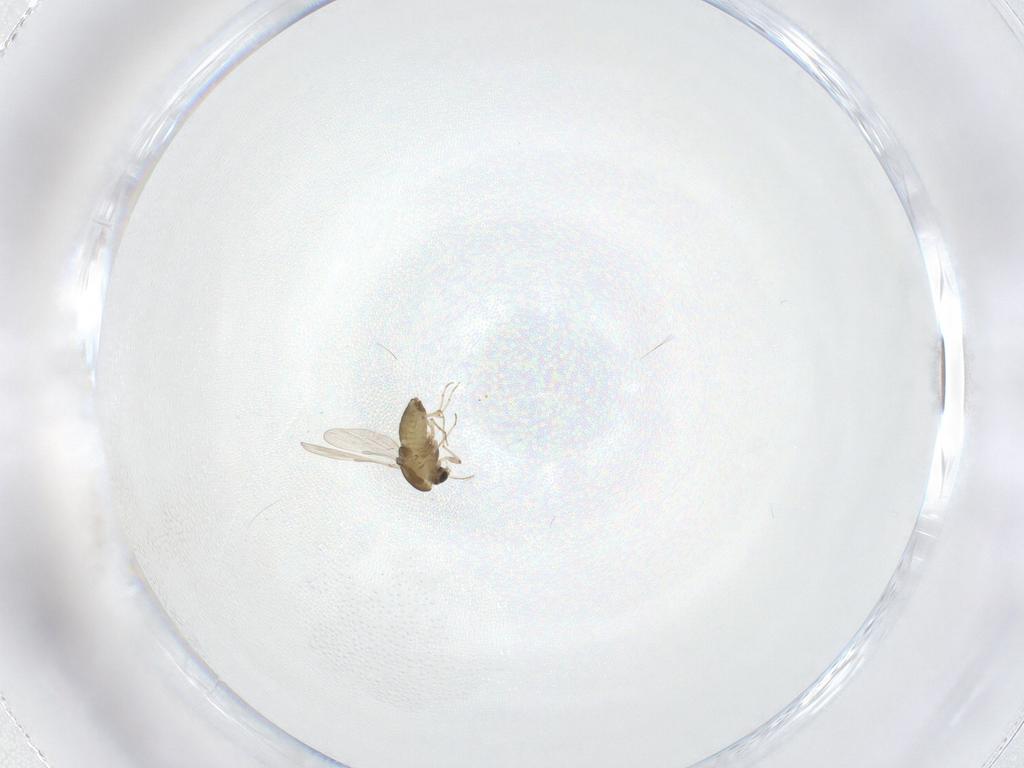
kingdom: Animalia
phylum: Arthropoda
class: Insecta
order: Diptera
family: Chironomidae
